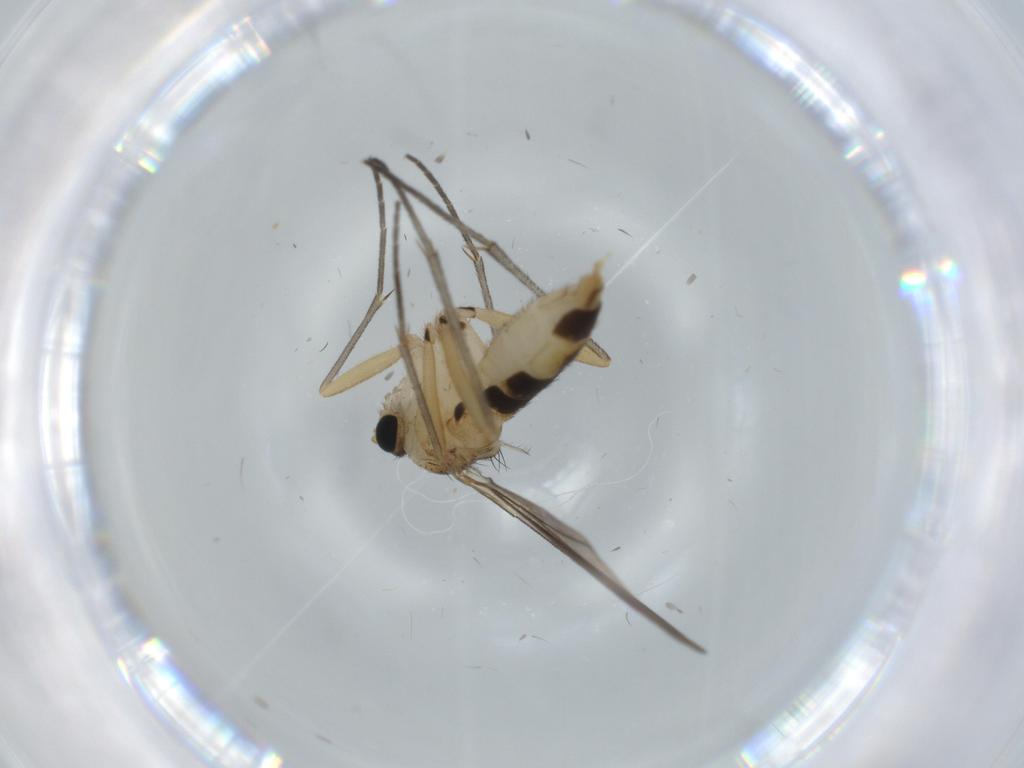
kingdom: Animalia
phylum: Arthropoda
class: Insecta
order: Diptera
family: Sciaridae
